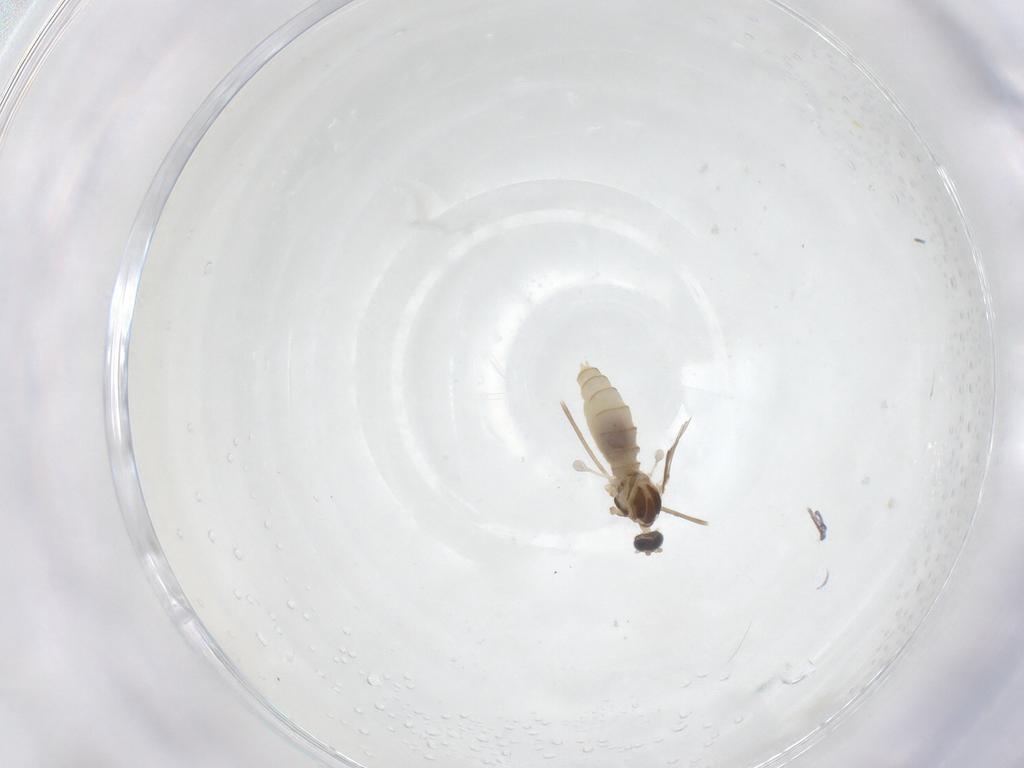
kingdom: Animalia
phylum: Arthropoda
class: Insecta
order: Diptera
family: Cecidomyiidae
